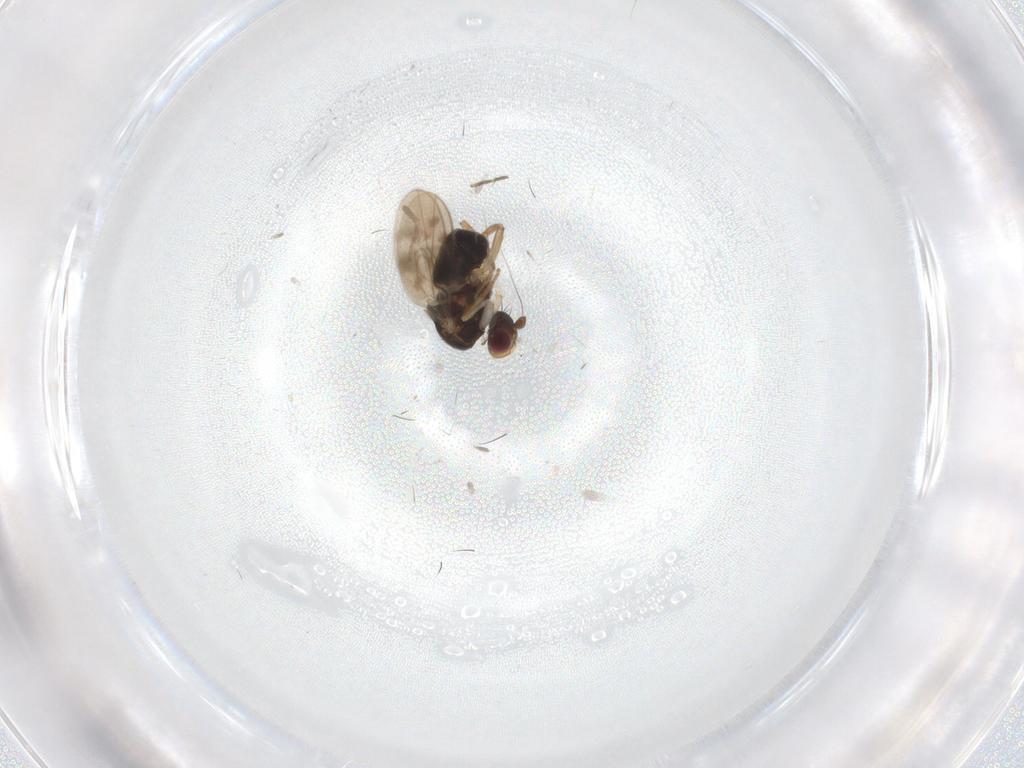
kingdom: Animalia
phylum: Arthropoda
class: Insecta
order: Diptera
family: Sphaeroceridae
